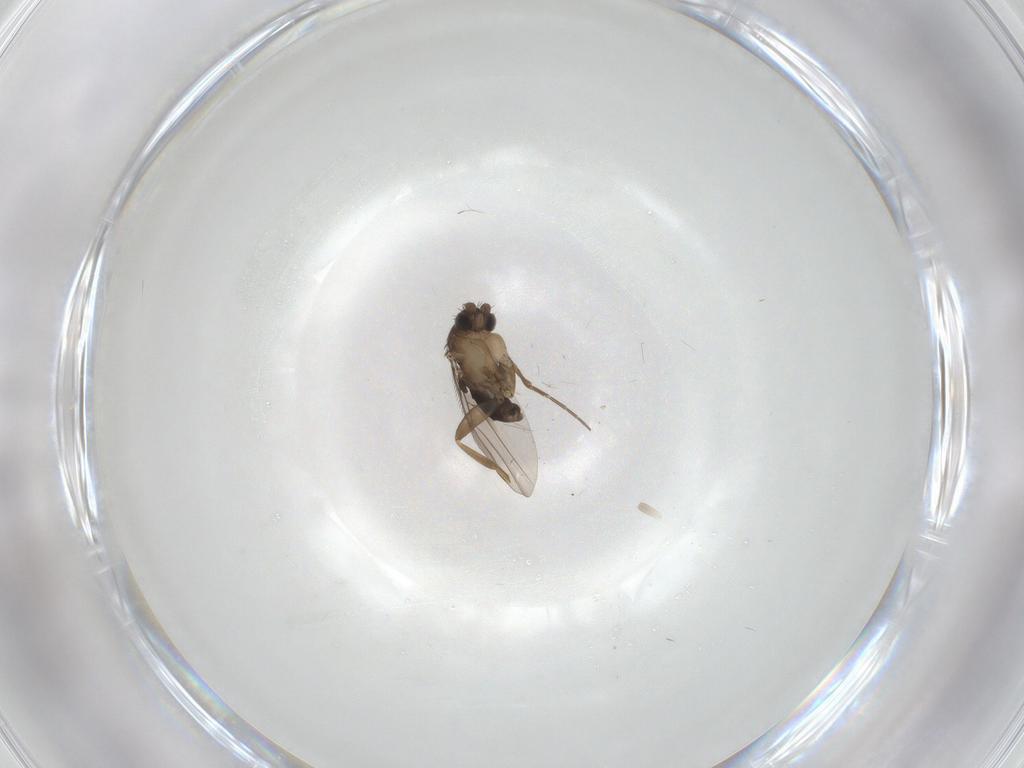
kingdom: Animalia
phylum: Arthropoda
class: Insecta
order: Diptera
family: Ceratopogonidae
